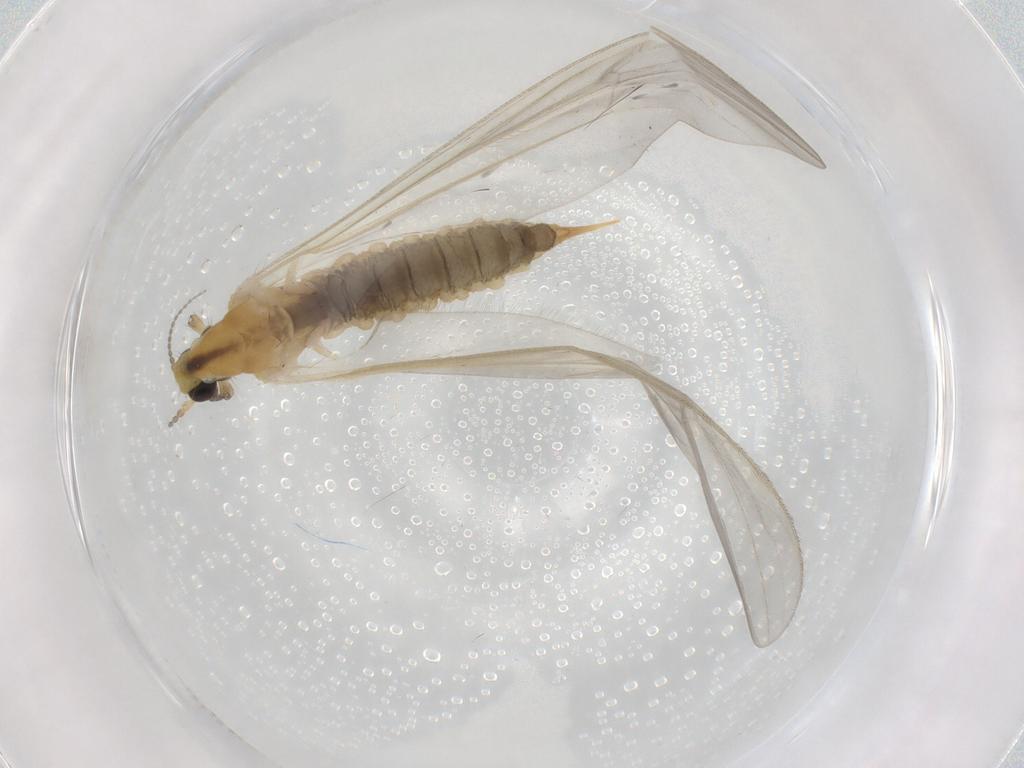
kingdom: Animalia
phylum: Arthropoda
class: Insecta
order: Diptera
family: Limoniidae
